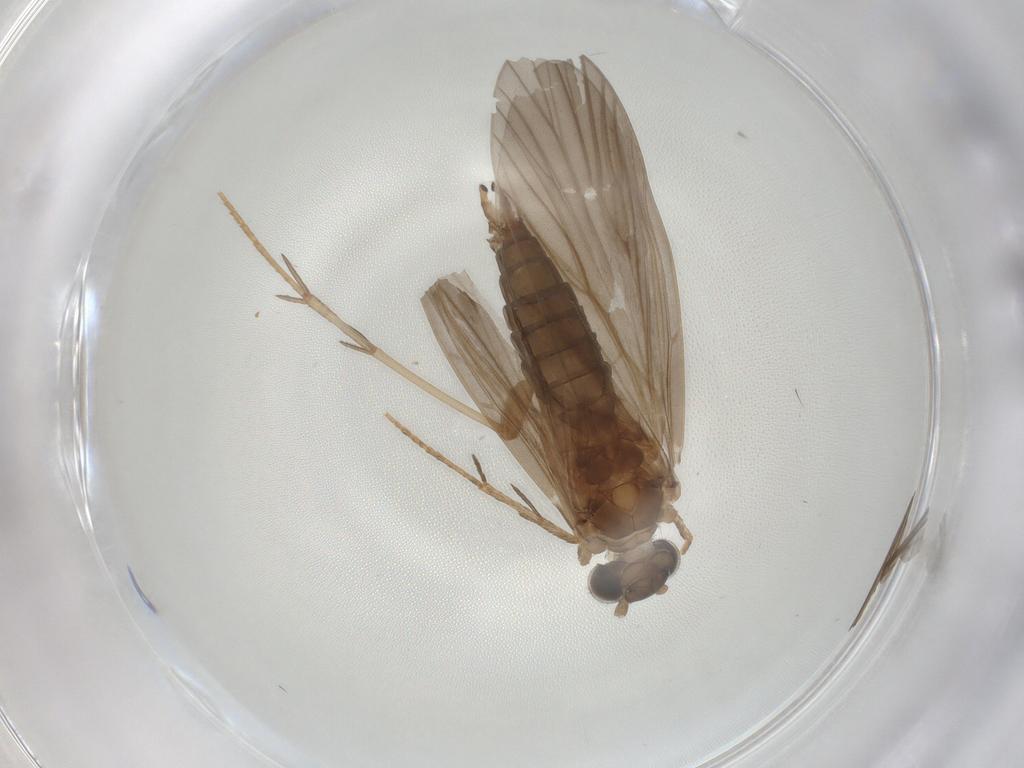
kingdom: Animalia
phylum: Arthropoda
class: Insecta
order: Trichoptera
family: Philopotamidae
